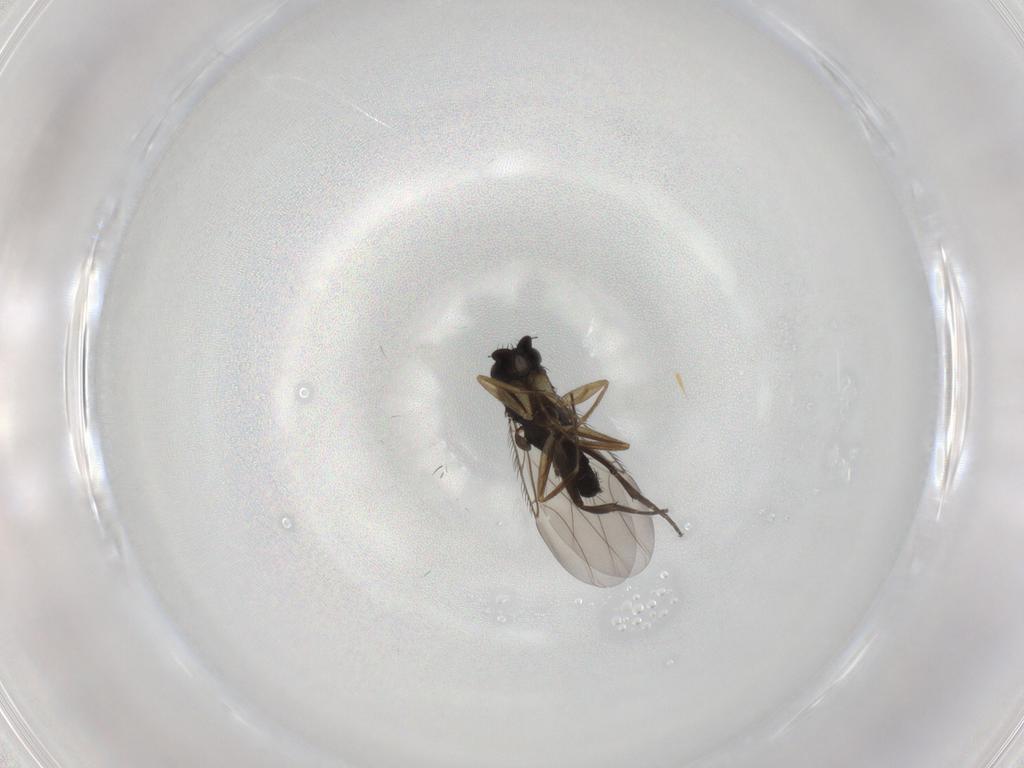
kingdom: Animalia
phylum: Arthropoda
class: Insecta
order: Diptera
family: Phoridae
